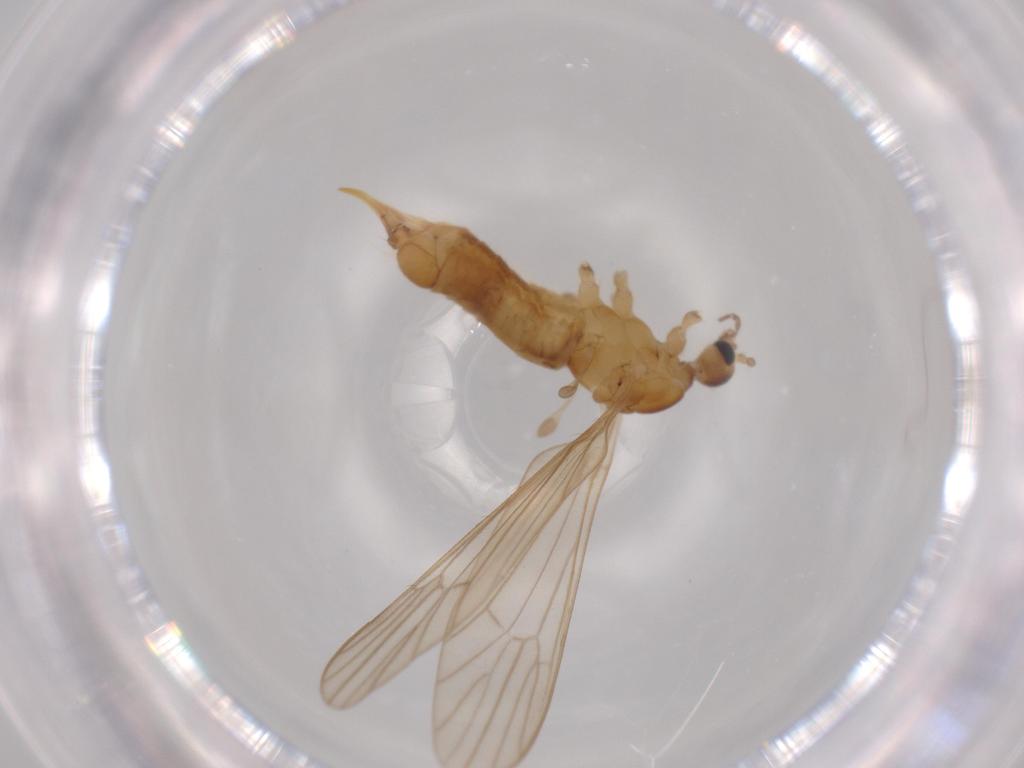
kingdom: Animalia
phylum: Arthropoda
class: Insecta
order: Diptera
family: Limoniidae
